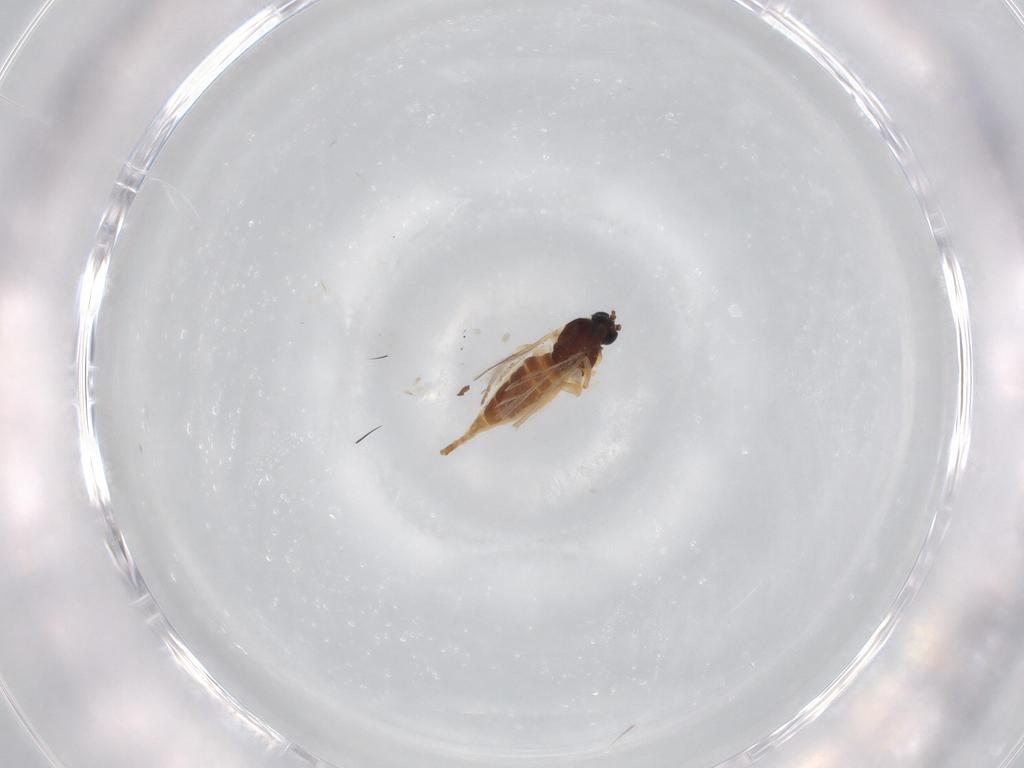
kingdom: Animalia
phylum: Arthropoda
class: Insecta
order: Diptera
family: Sciaridae
